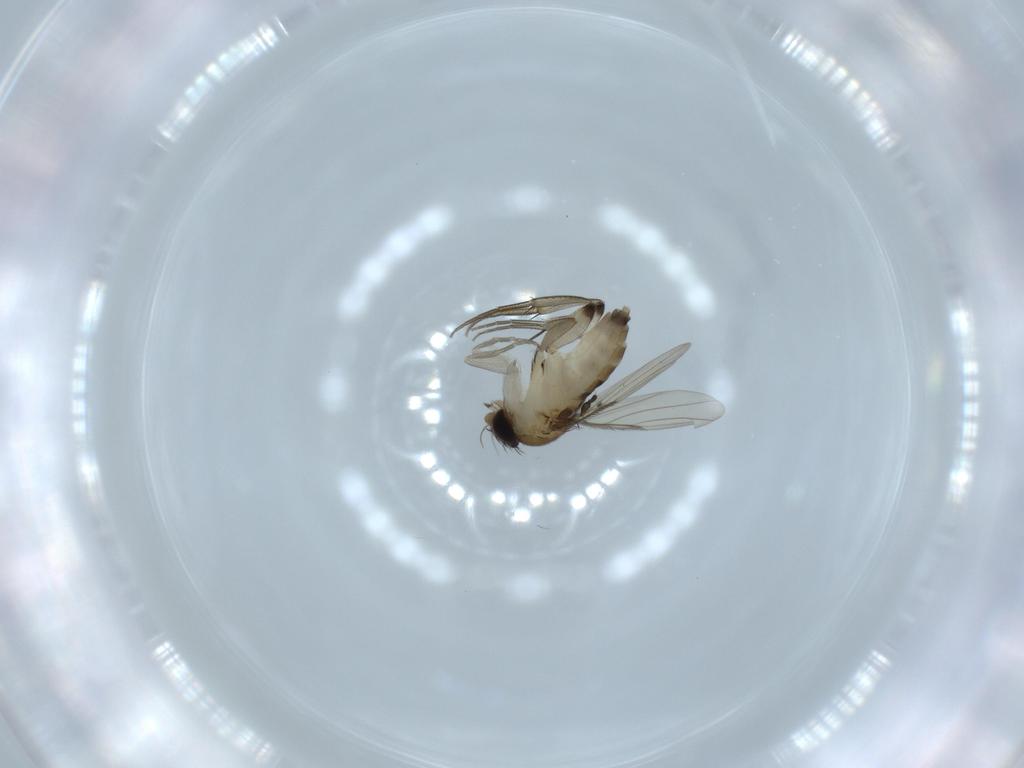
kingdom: Animalia
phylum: Arthropoda
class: Insecta
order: Diptera
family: Phoridae
